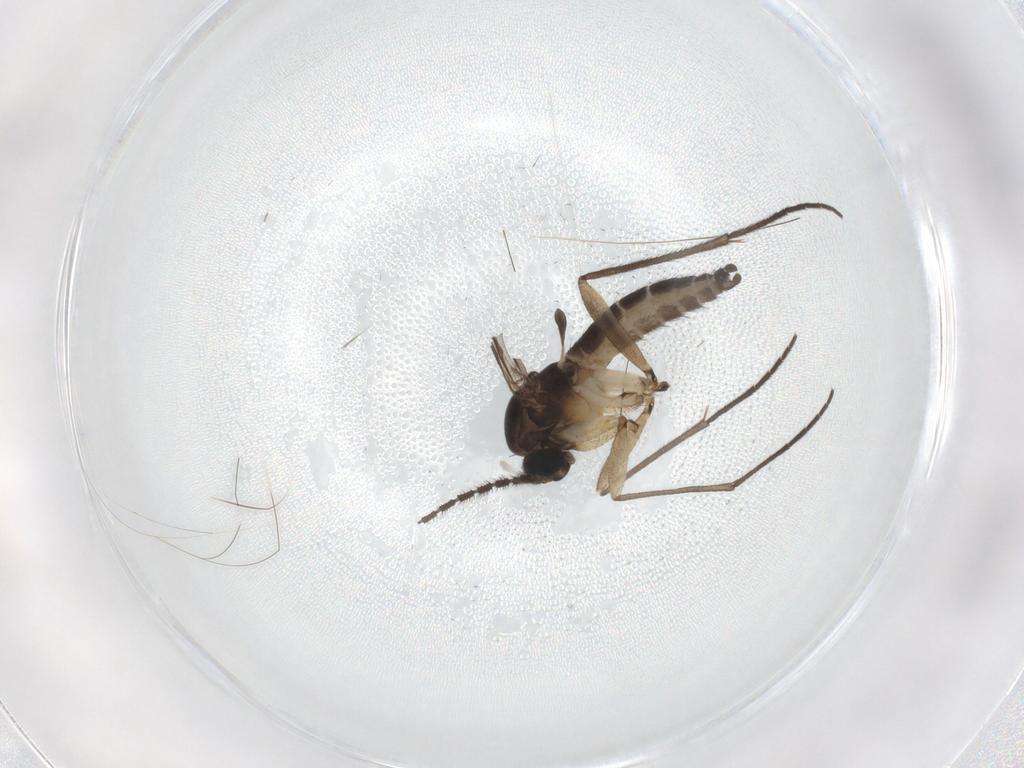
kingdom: Animalia
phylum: Arthropoda
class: Insecta
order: Diptera
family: Sciaridae
